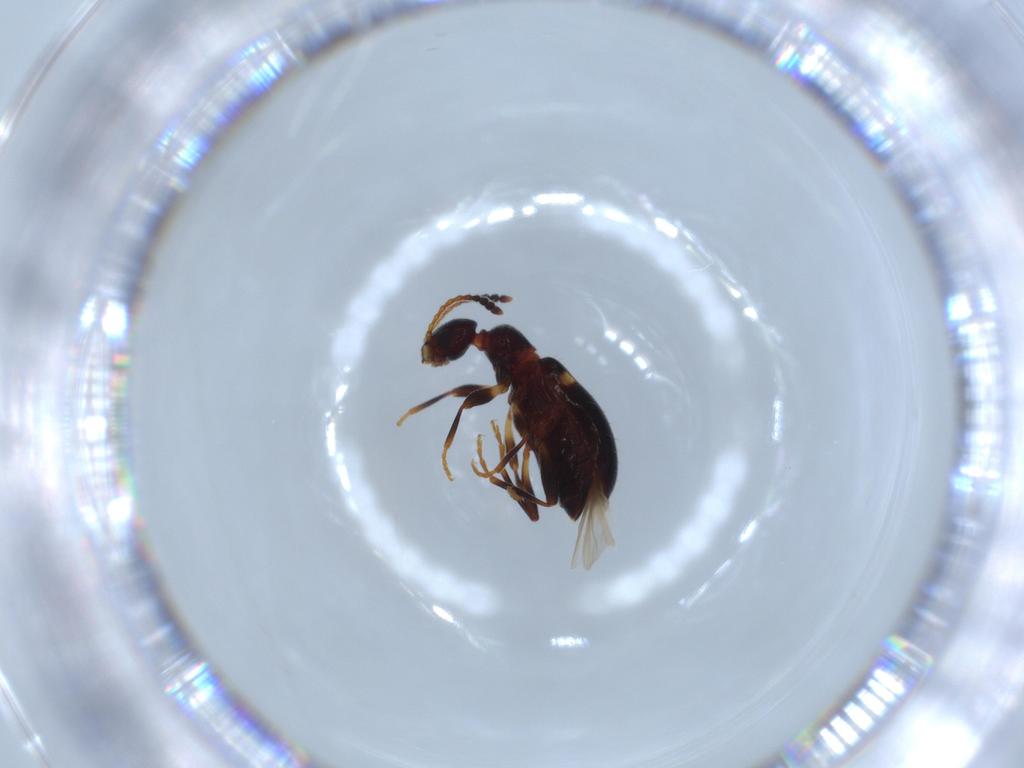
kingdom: Animalia
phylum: Arthropoda
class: Insecta
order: Coleoptera
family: Anthicidae
